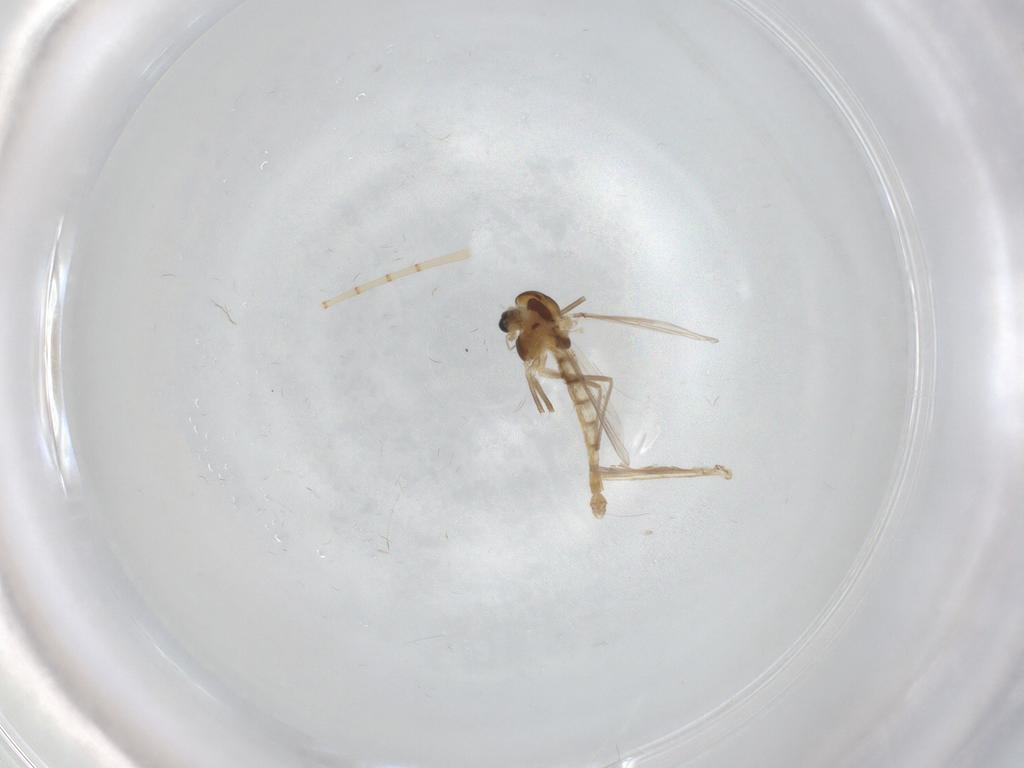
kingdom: Animalia
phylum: Arthropoda
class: Insecta
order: Diptera
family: Chironomidae
